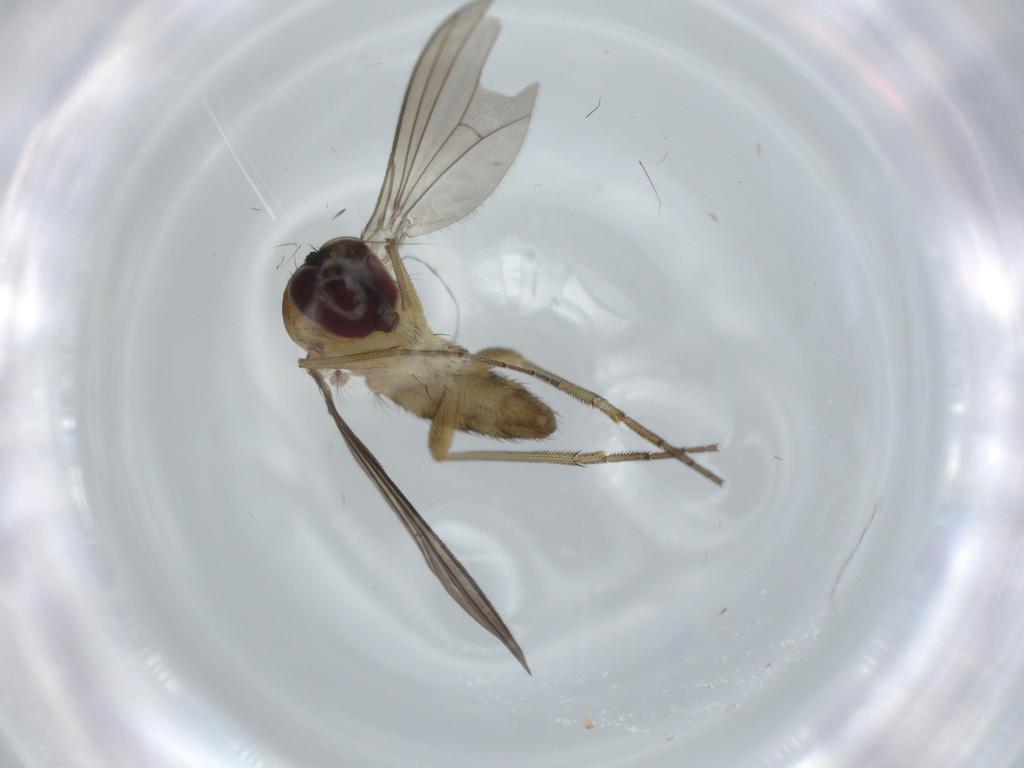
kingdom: Animalia
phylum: Arthropoda
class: Insecta
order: Diptera
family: Dolichopodidae
